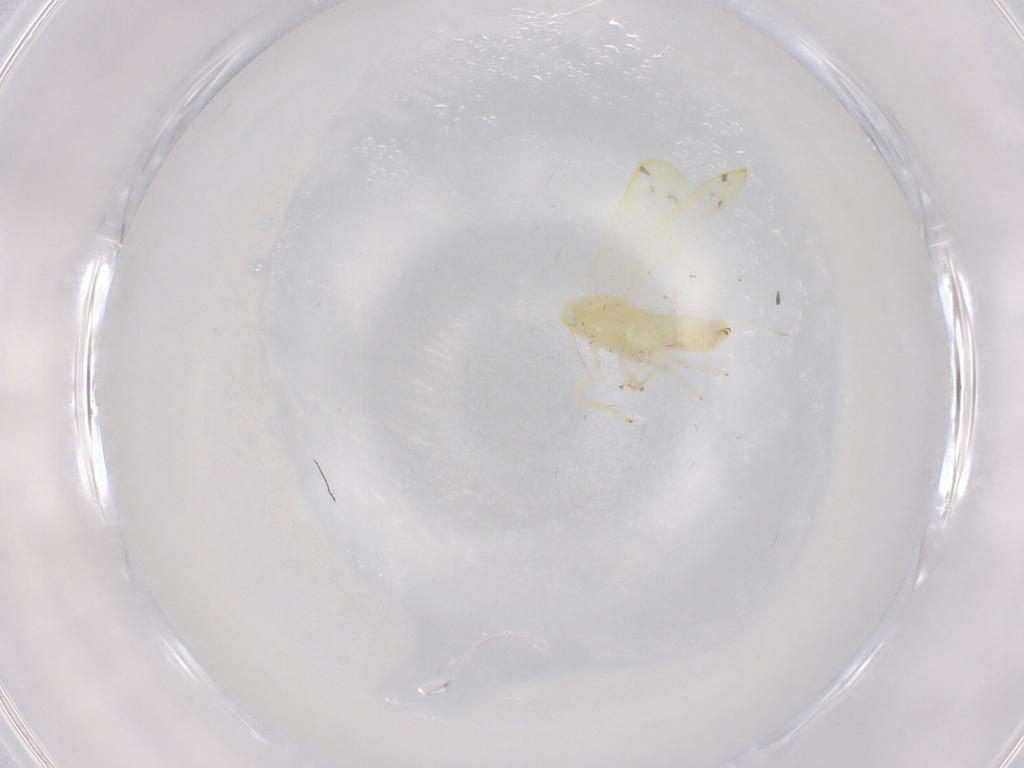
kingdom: Animalia
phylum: Arthropoda
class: Insecta
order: Hemiptera
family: Cicadellidae
